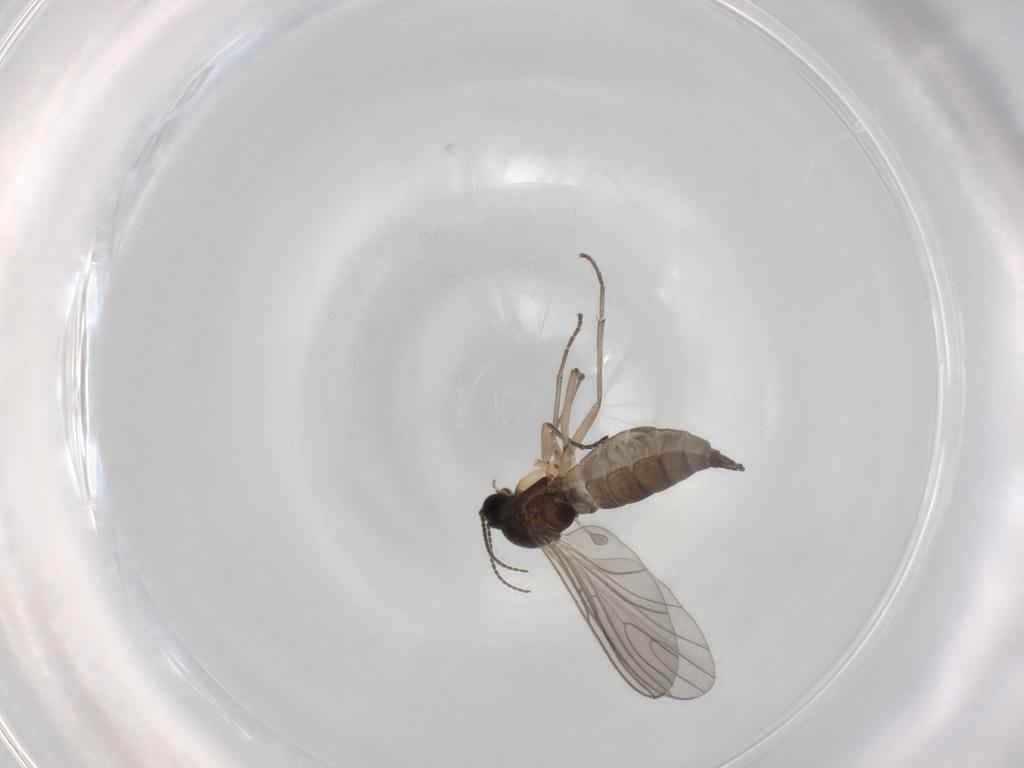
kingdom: Animalia
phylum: Arthropoda
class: Insecta
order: Diptera
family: Sciaridae
